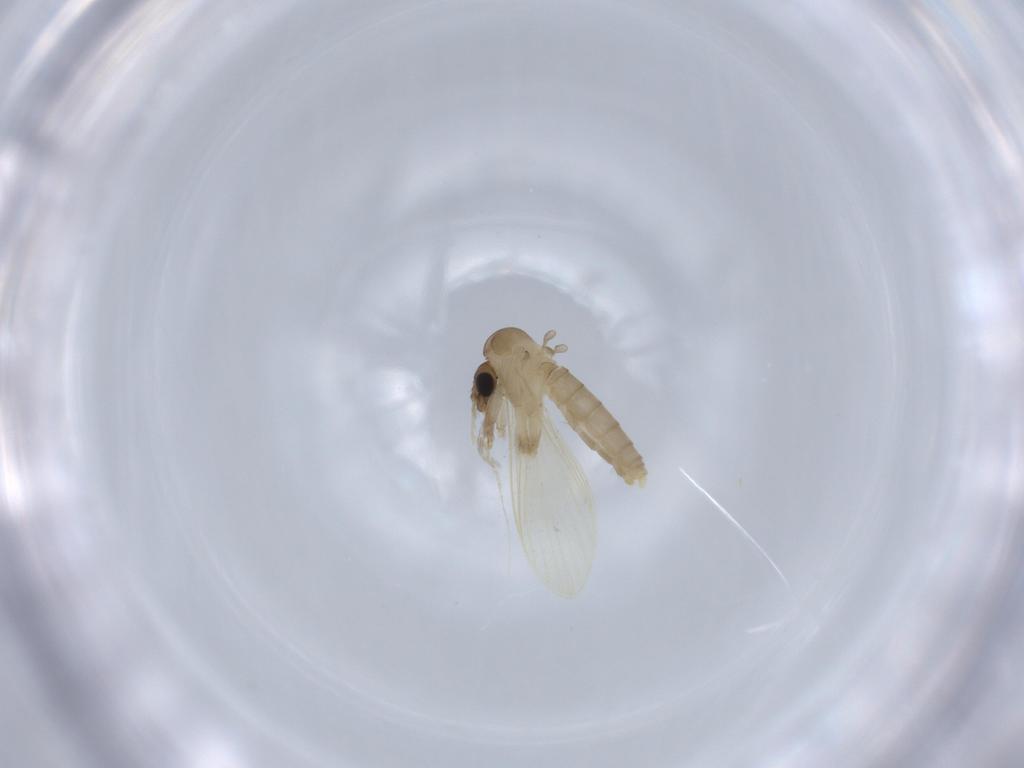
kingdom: Animalia
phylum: Arthropoda
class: Insecta
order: Diptera
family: Psychodidae
